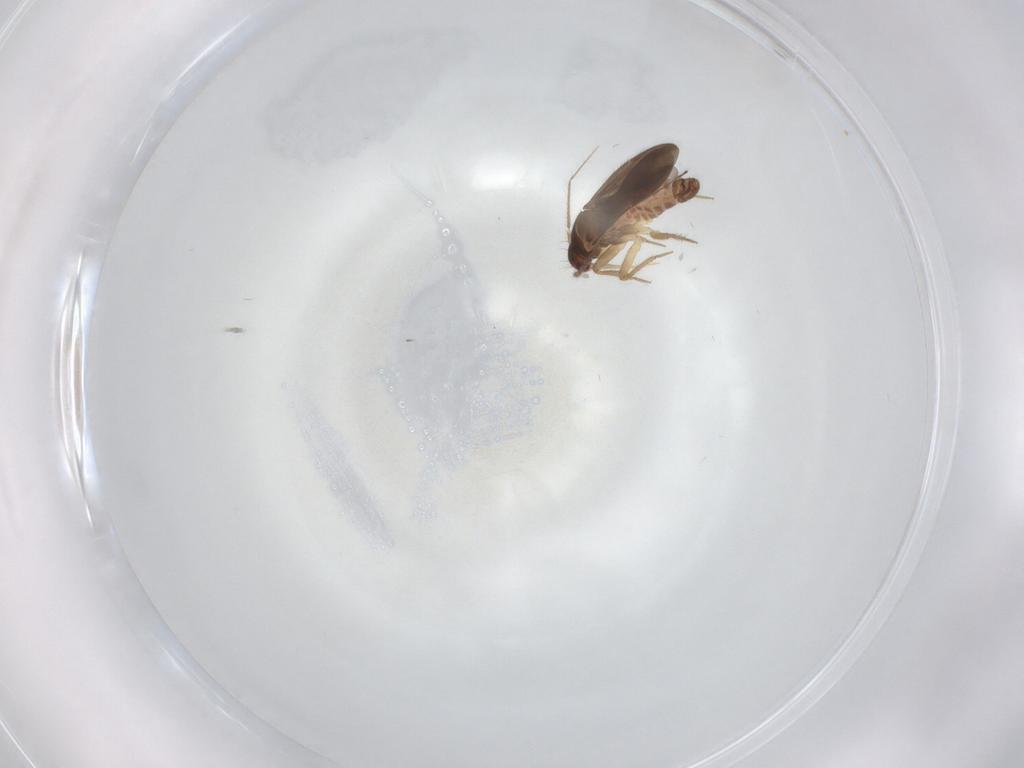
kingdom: Animalia
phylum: Arthropoda
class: Insecta
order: Hemiptera
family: Ceratocombidae
